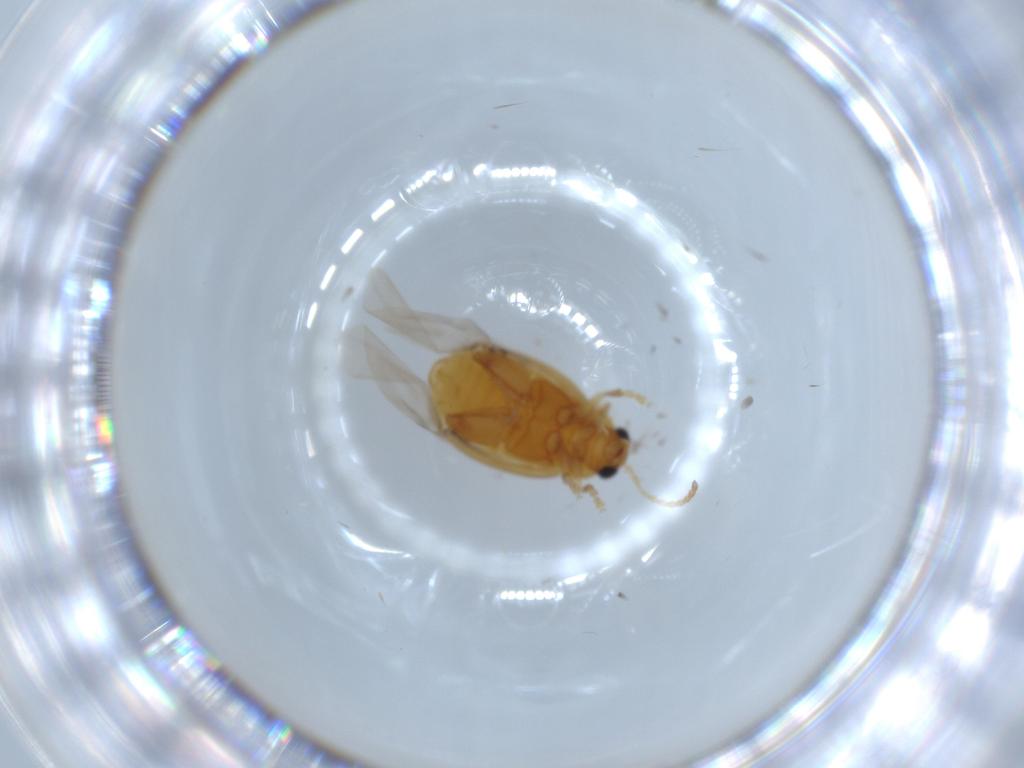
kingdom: Animalia
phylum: Arthropoda
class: Insecta
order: Coleoptera
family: Chrysomelidae
